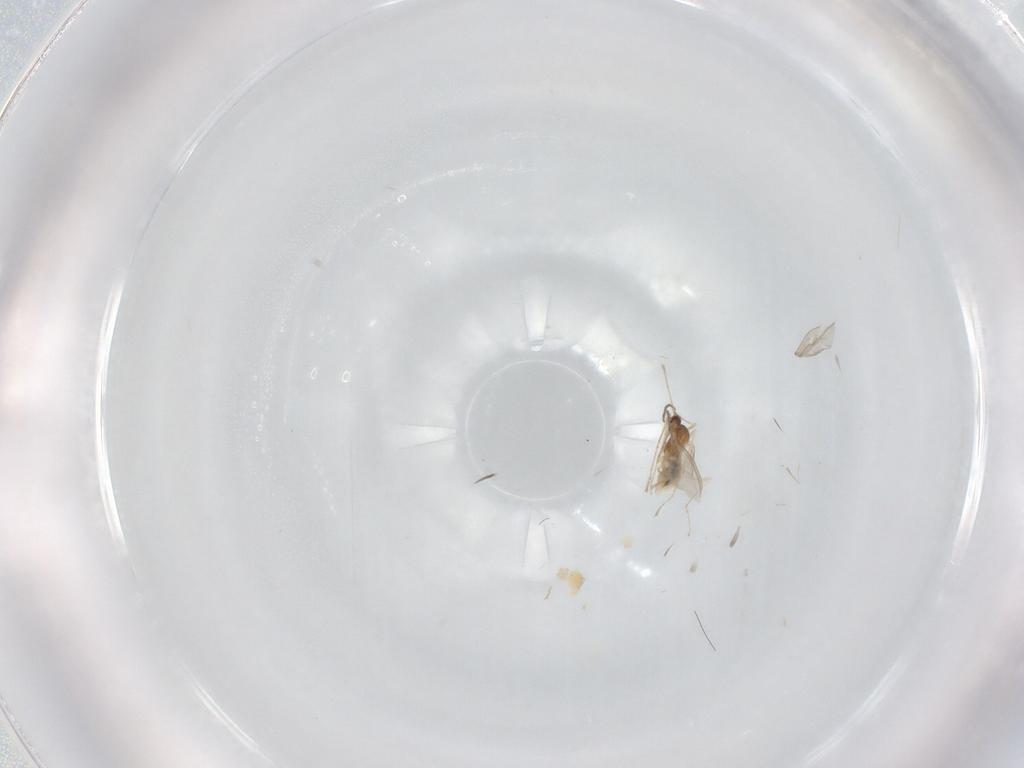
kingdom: Animalia
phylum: Arthropoda
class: Insecta
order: Diptera
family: Cecidomyiidae
